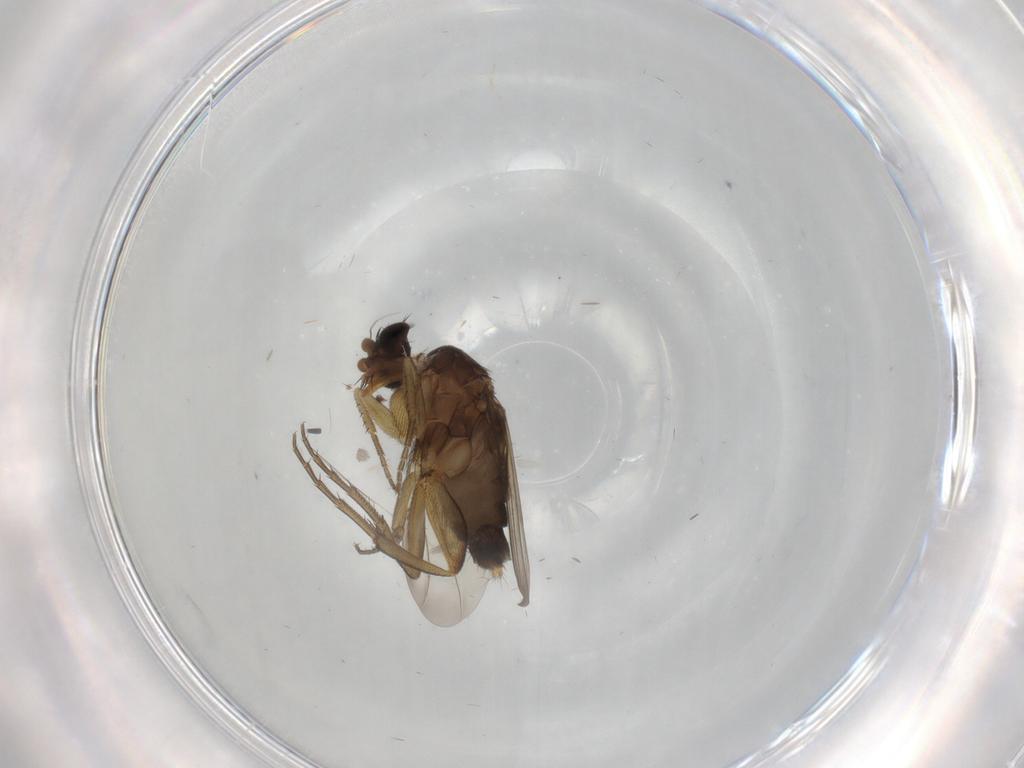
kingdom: Animalia
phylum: Arthropoda
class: Insecta
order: Diptera
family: Phoridae
